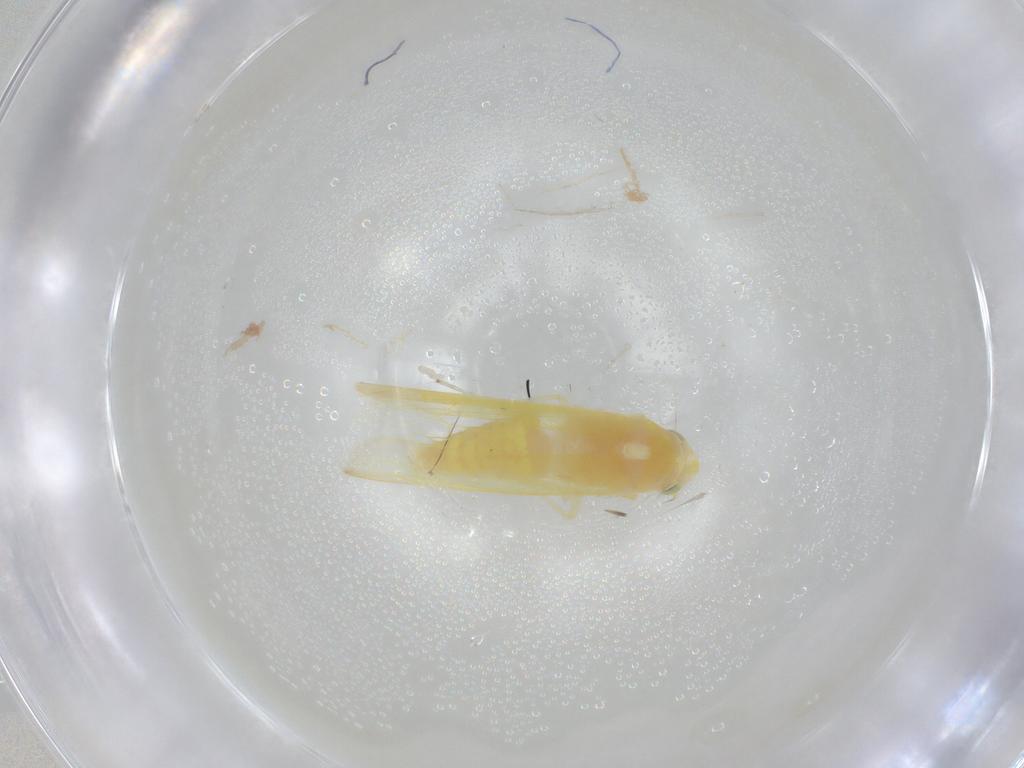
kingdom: Animalia
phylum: Arthropoda
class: Insecta
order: Hemiptera
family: Cicadellidae
